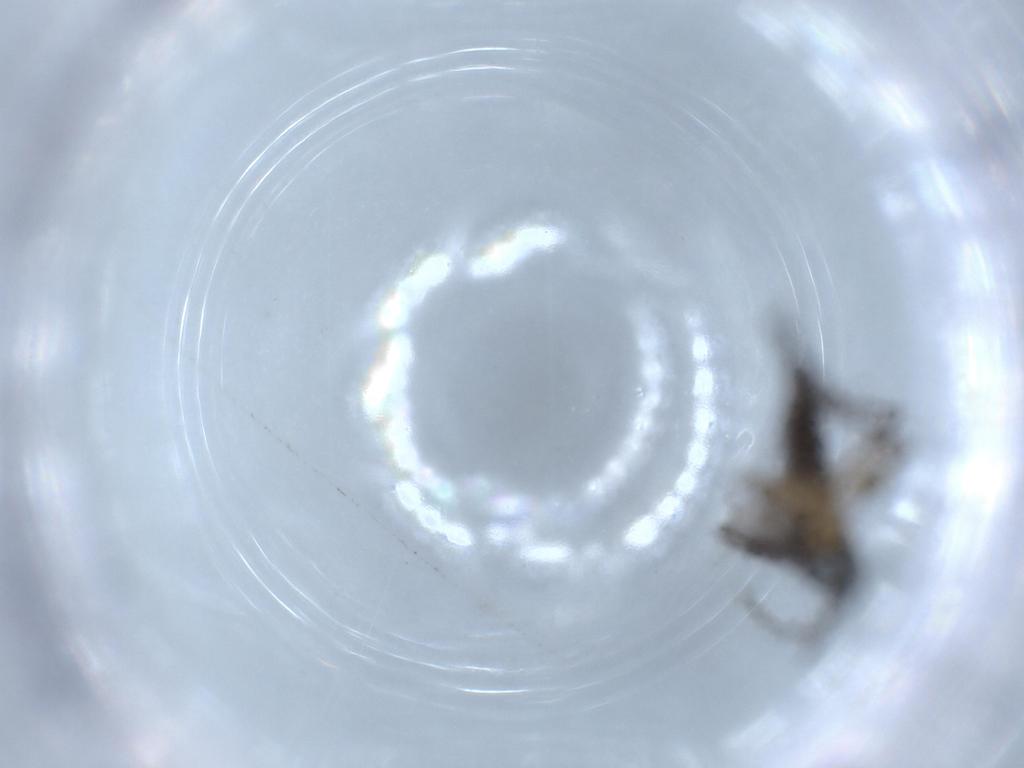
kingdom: Animalia
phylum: Arthropoda
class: Insecta
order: Diptera
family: Sciaridae
